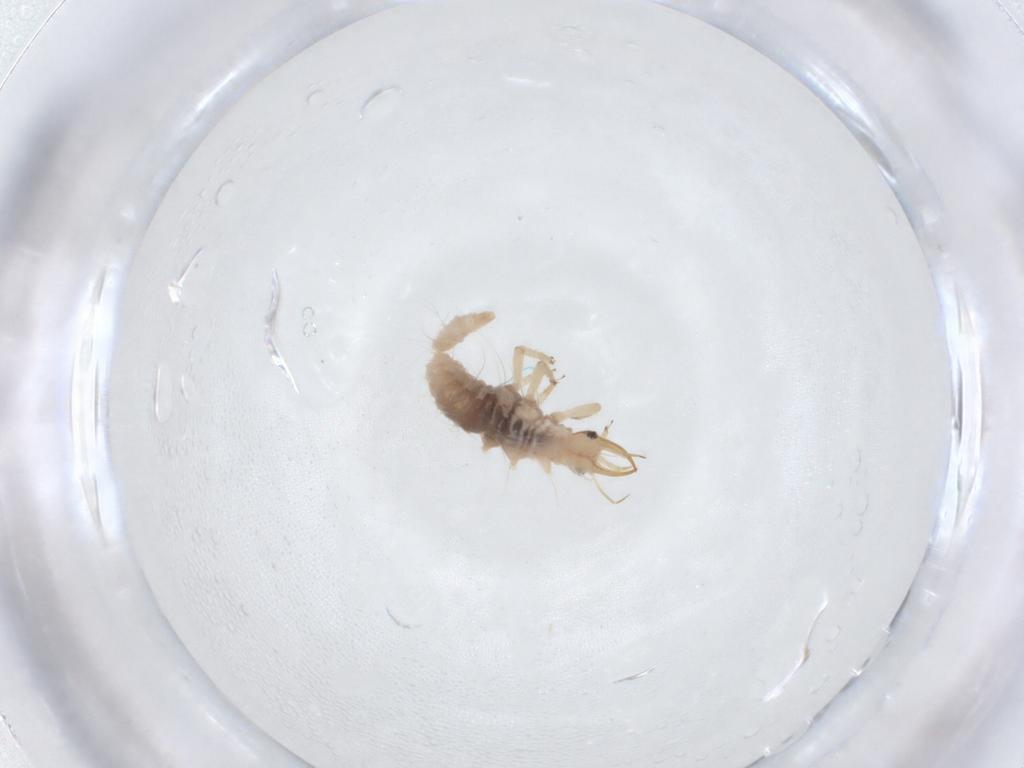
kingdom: Animalia
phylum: Arthropoda
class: Insecta
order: Neuroptera
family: Chrysopidae
